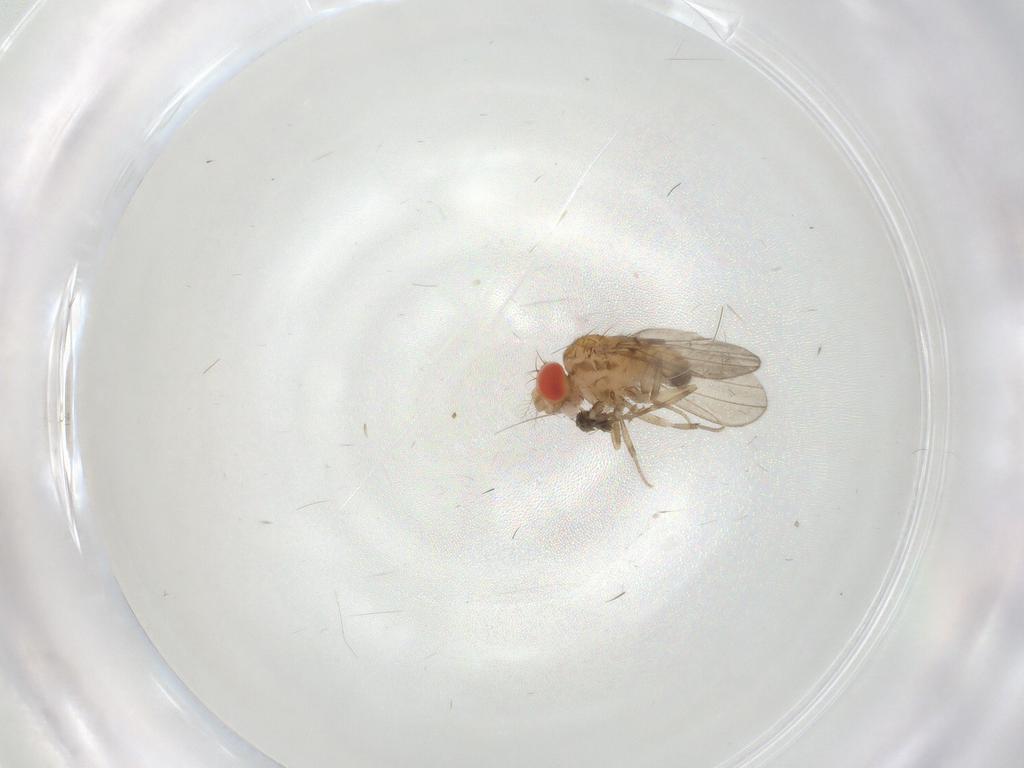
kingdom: Animalia
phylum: Arthropoda
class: Insecta
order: Diptera
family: Drosophilidae
